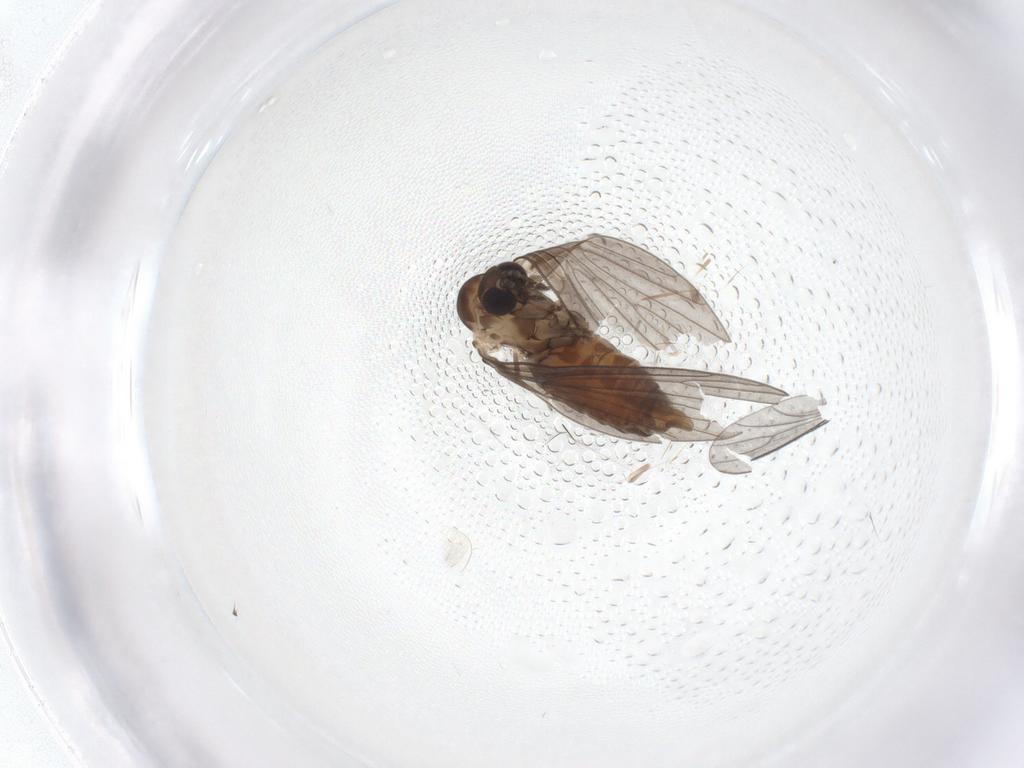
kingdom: Animalia
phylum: Arthropoda
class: Insecta
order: Diptera
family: Psychodidae
